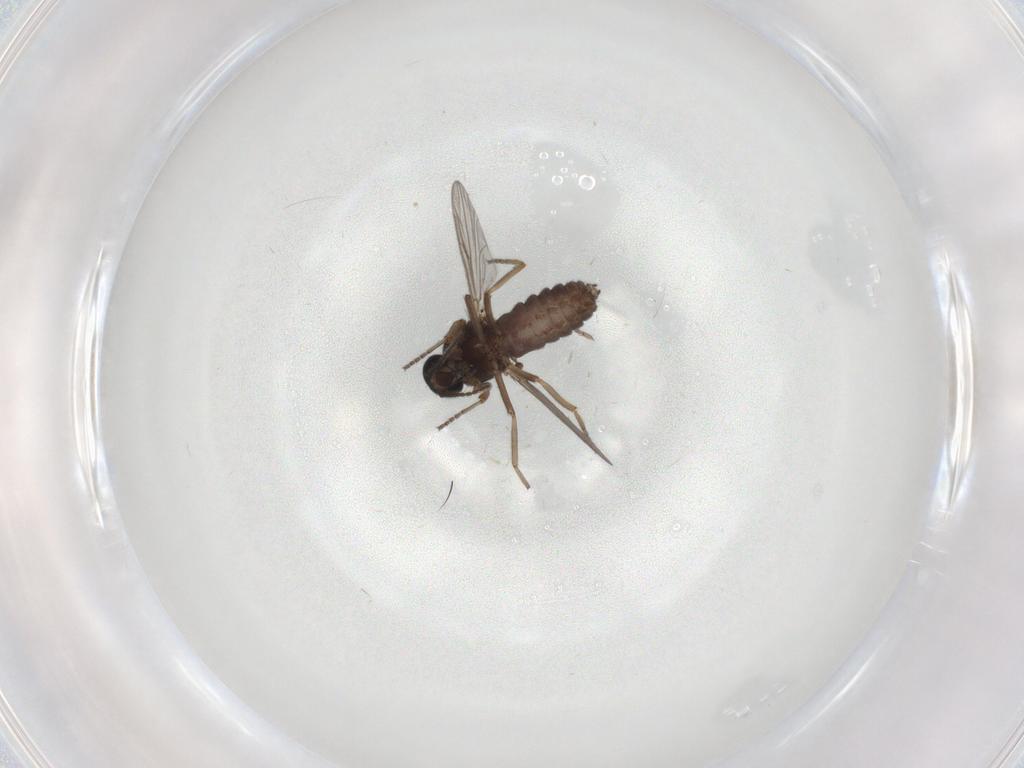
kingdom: Animalia
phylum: Arthropoda
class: Insecta
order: Diptera
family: Ceratopogonidae
